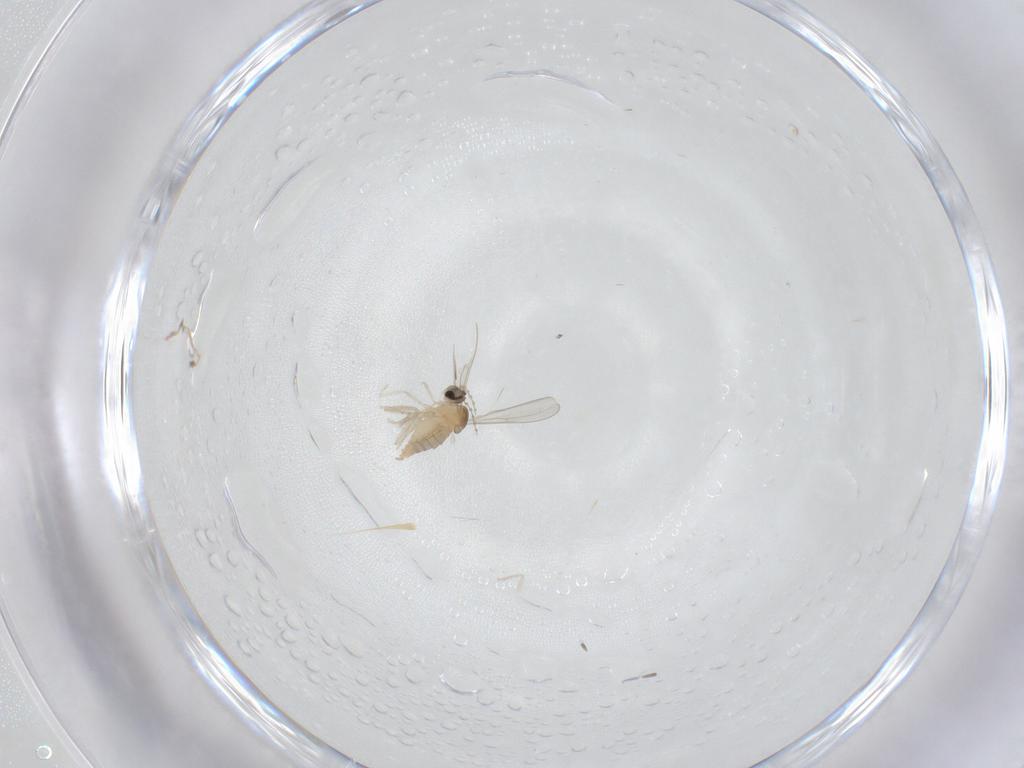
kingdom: Animalia
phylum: Arthropoda
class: Insecta
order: Diptera
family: Cecidomyiidae
